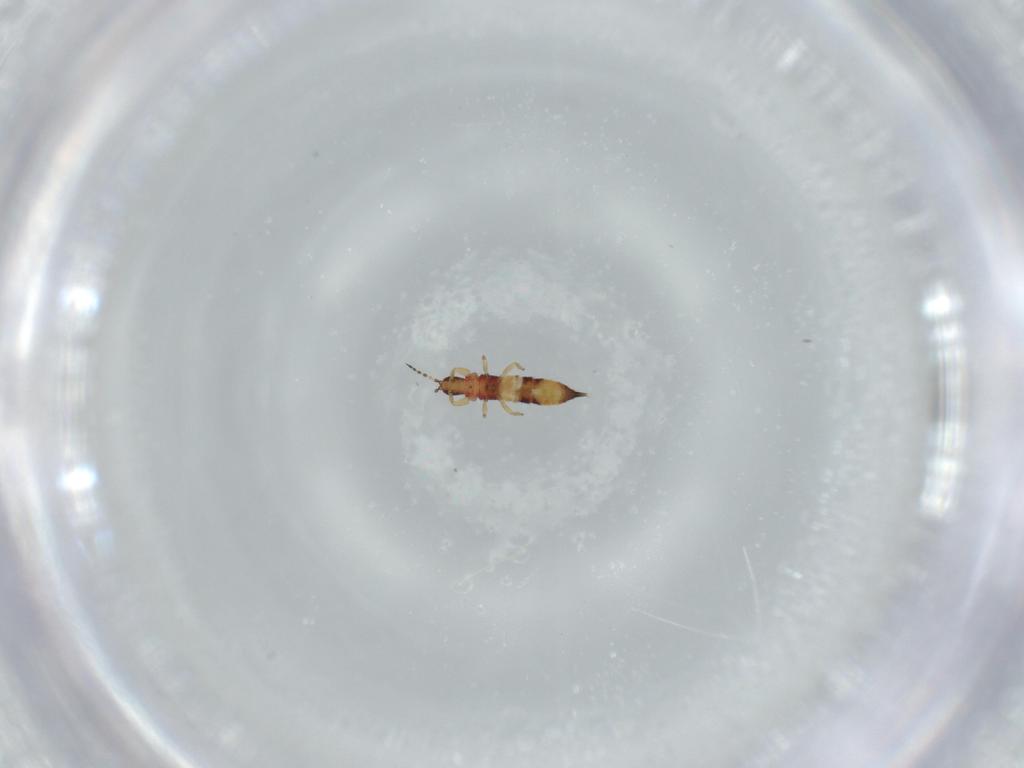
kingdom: Animalia
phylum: Arthropoda
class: Insecta
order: Thysanoptera
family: Phlaeothripidae
